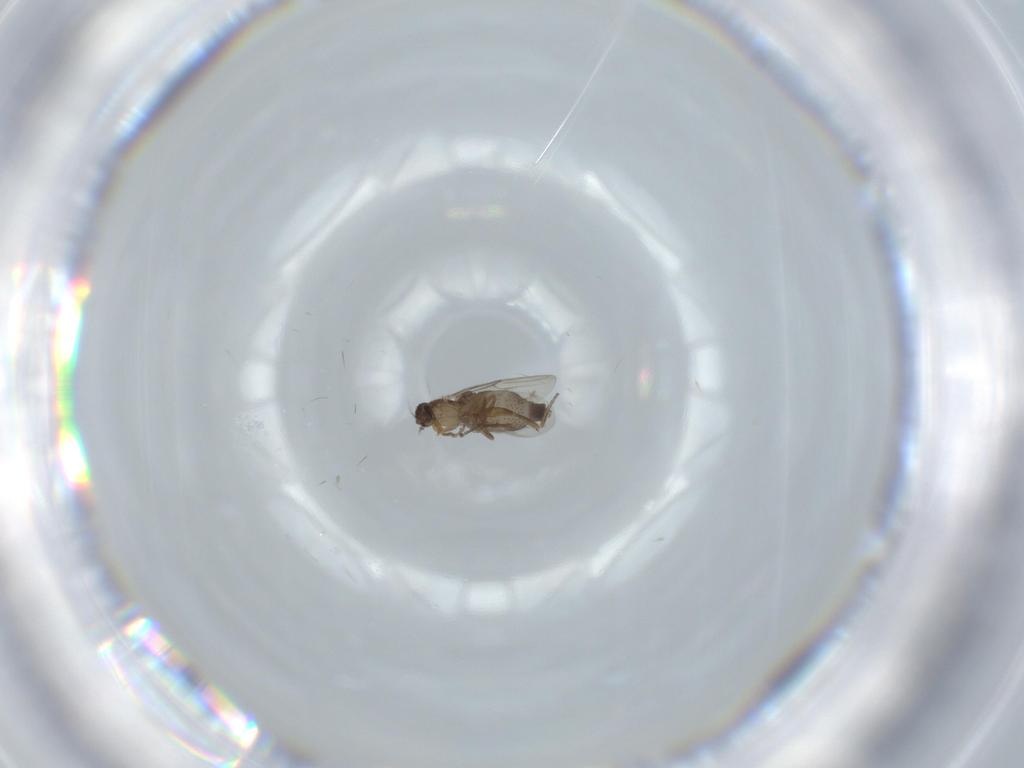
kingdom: Animalia
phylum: Arthropoda
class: Insecta
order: Diptera
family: Phoridae
